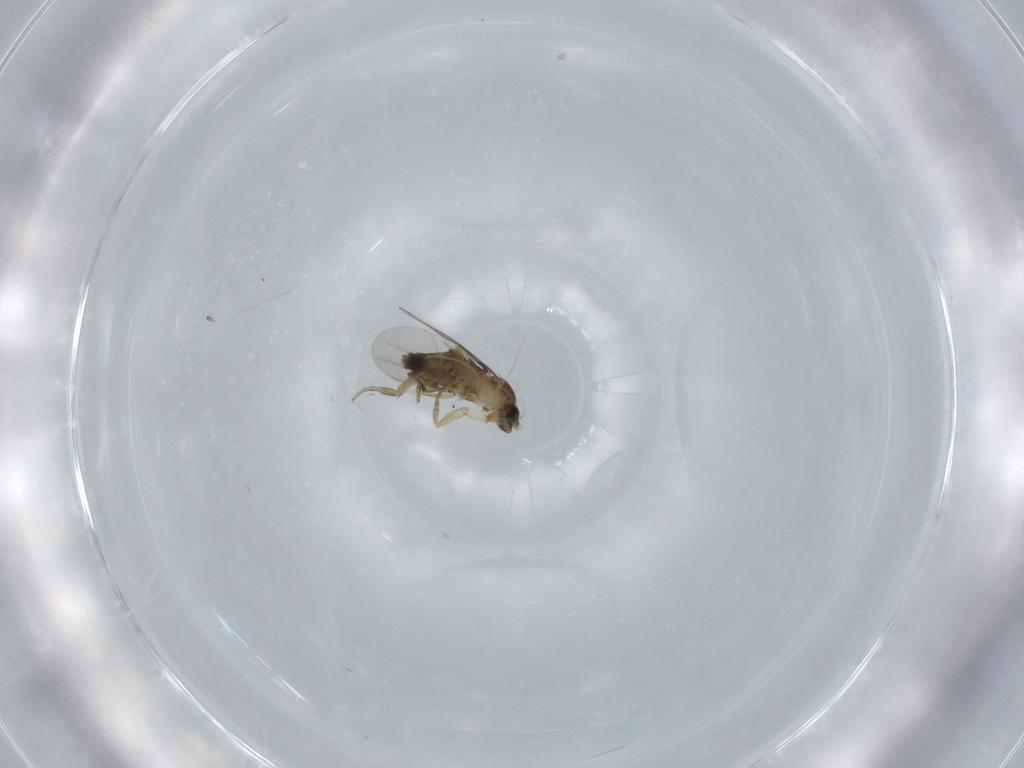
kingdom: Animalia
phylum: Arthropoda
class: Insecta
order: Diptera
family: Phoridae
